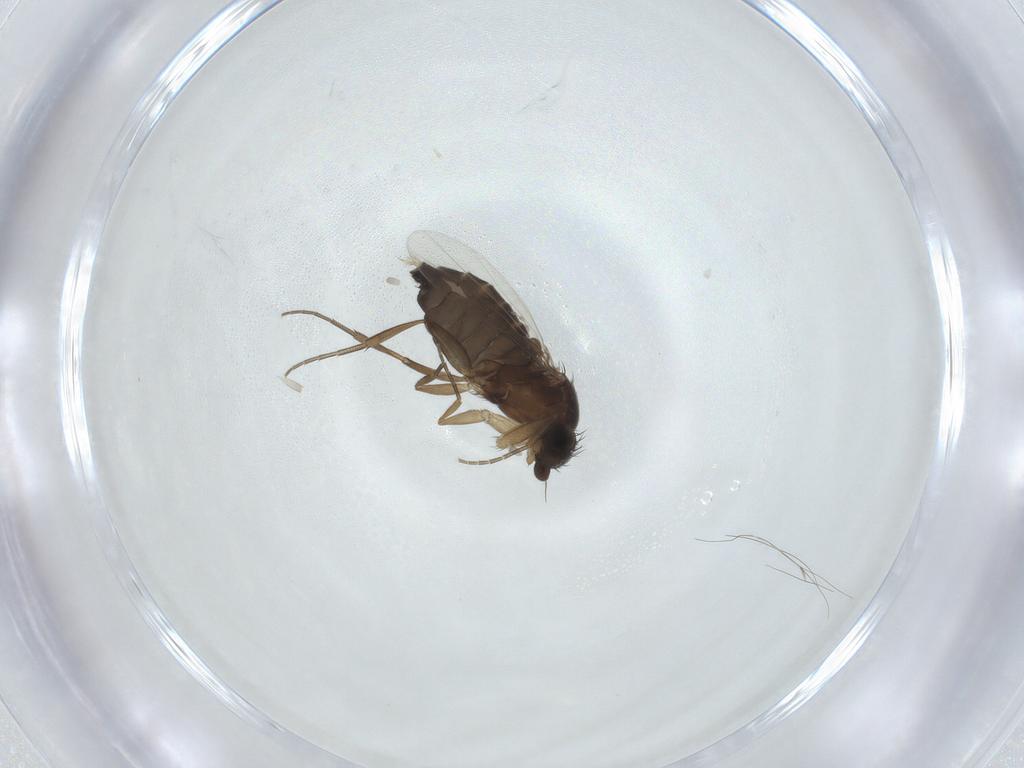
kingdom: Animalia
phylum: Arthropoda
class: Insecta
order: Diptera
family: Phoridae
